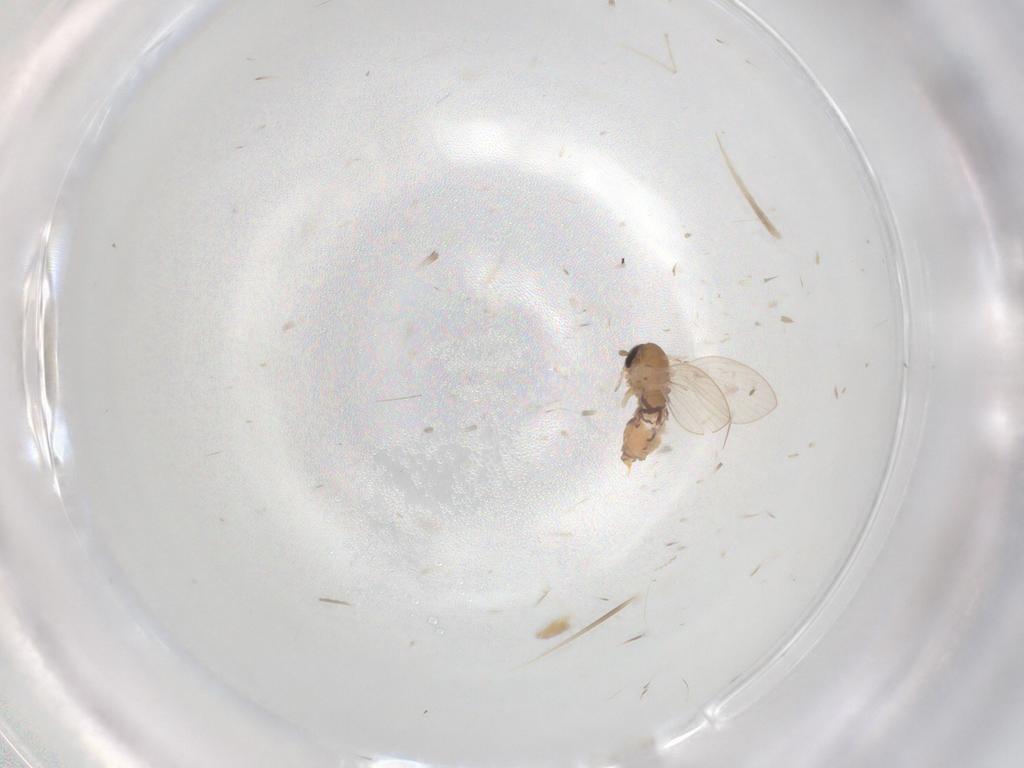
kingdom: Animalia
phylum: Arthropoda
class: Insecta
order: Diptera
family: Cecidomyiidae
